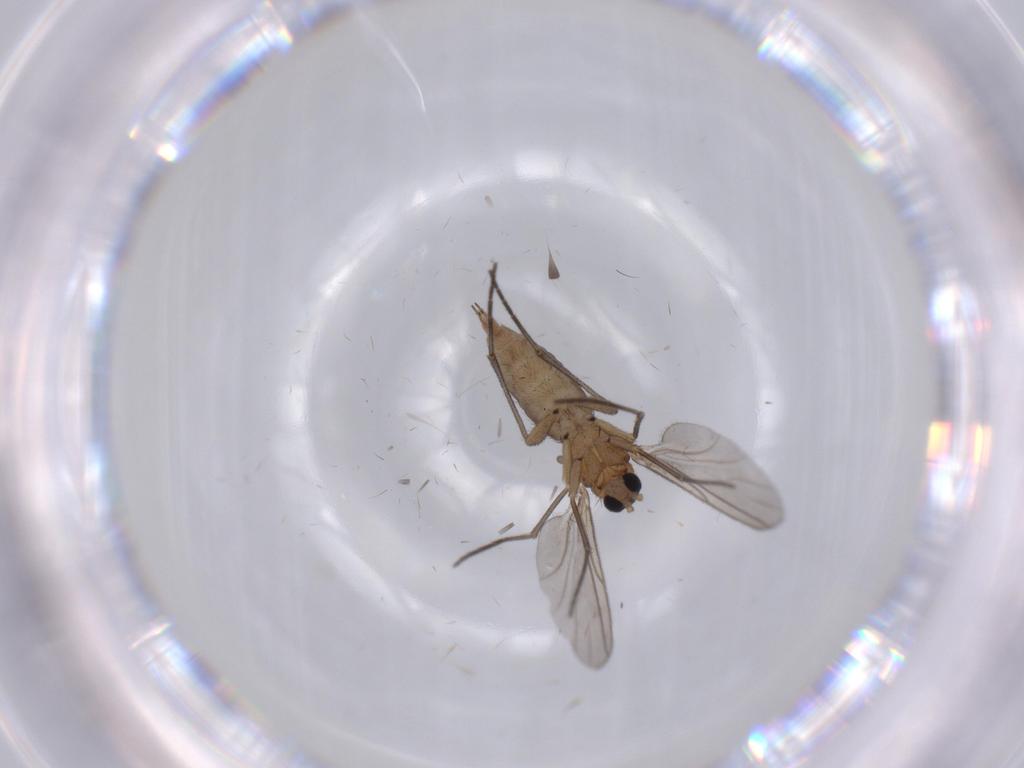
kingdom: Animalia
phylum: Arthropoda
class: Insecta
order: Diptera
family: Sciaridae
